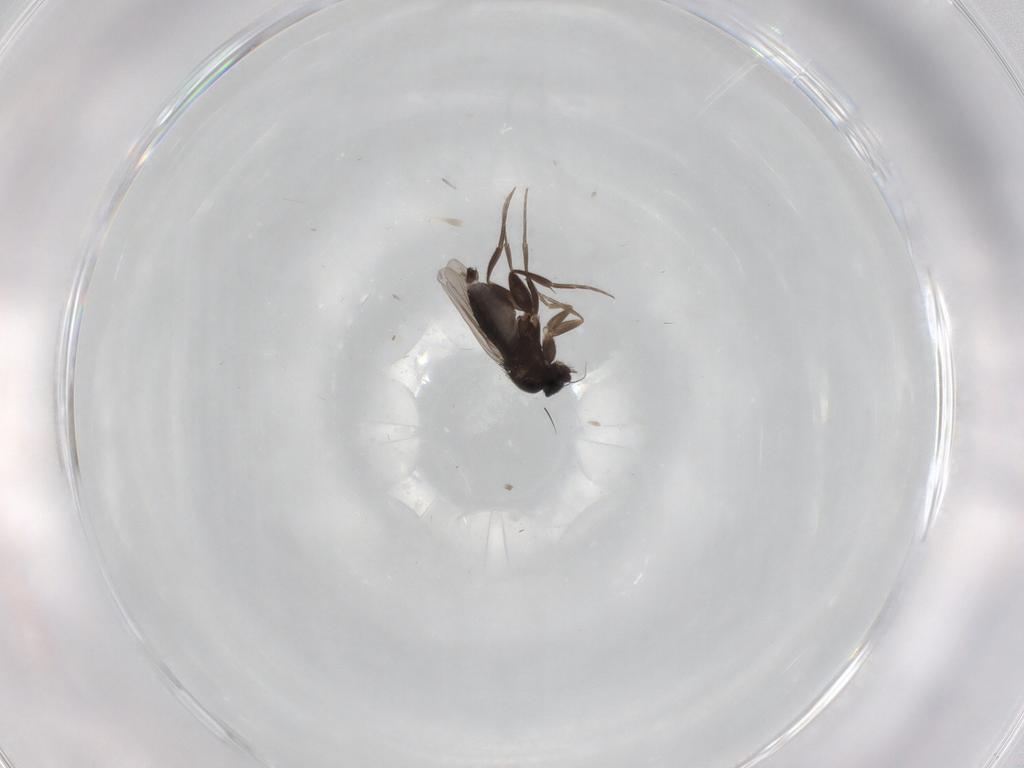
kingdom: Animalia
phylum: Arthropoda
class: Insecta
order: Diptera
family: Phoridae
